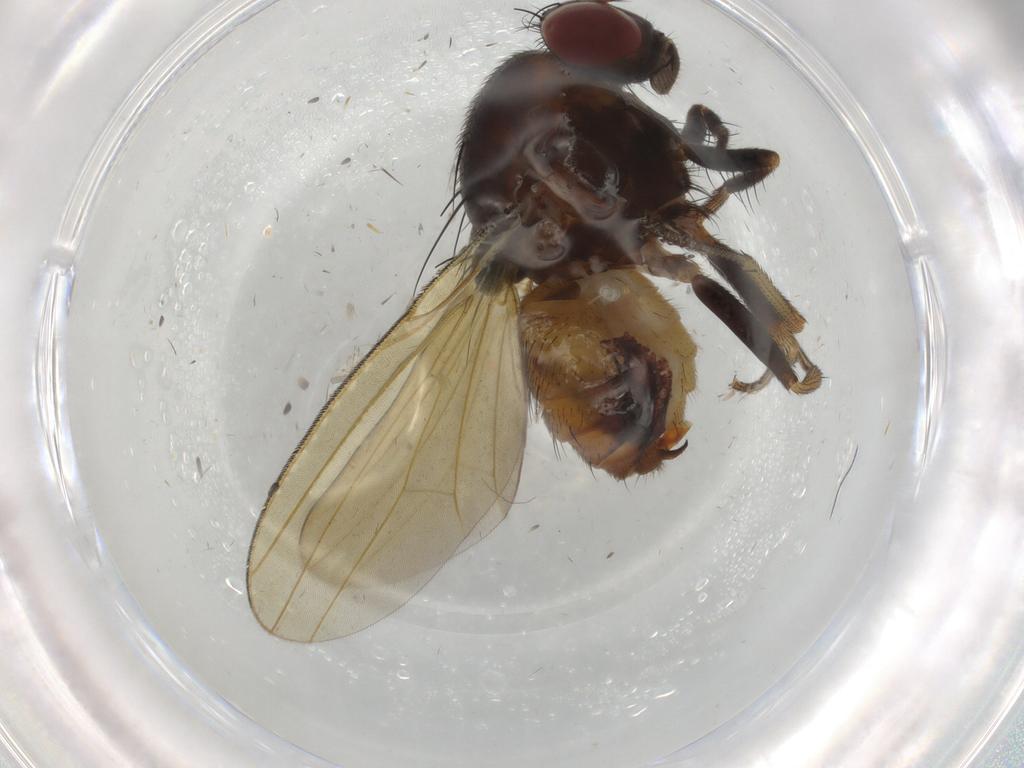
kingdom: Animalia
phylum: Arthropoda
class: Insecta
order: Diptera
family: Lauxaniidae
